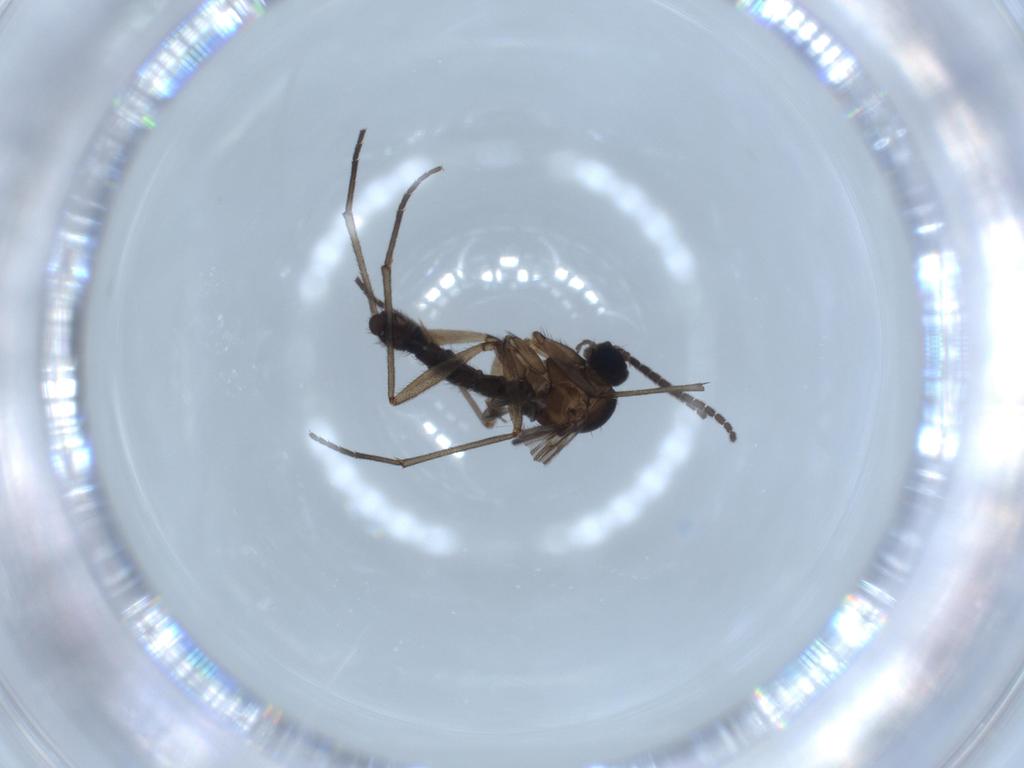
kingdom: Animalia
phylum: Arthropoda
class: Insecta
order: Diptera
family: Sciaridae
